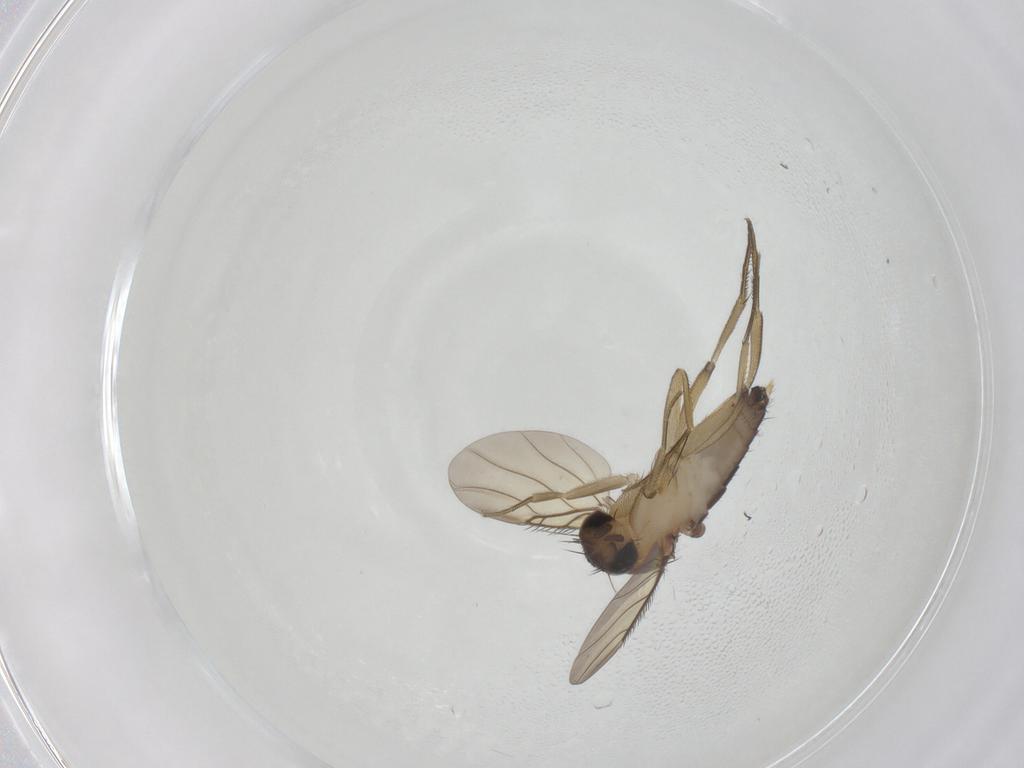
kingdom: Animalia
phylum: Arthropoda
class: Insecta
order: Diptera
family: Phoridae
